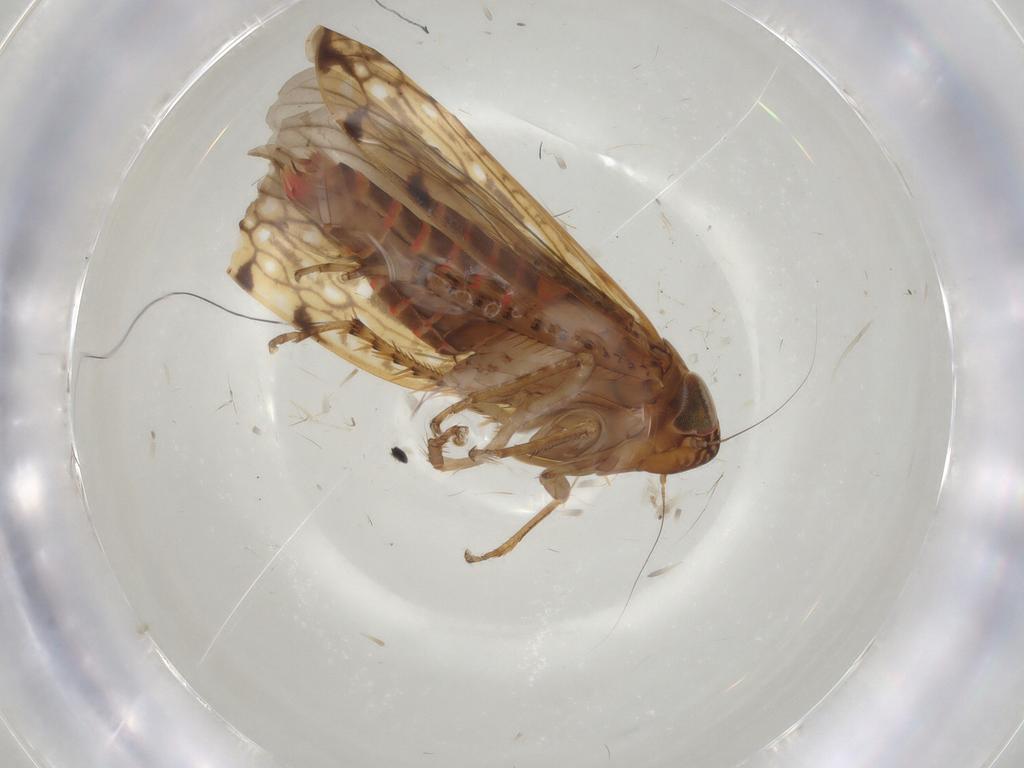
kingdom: Animalia
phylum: Arthropoda
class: Insecta
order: Hemiptera
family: Cicadellidae
